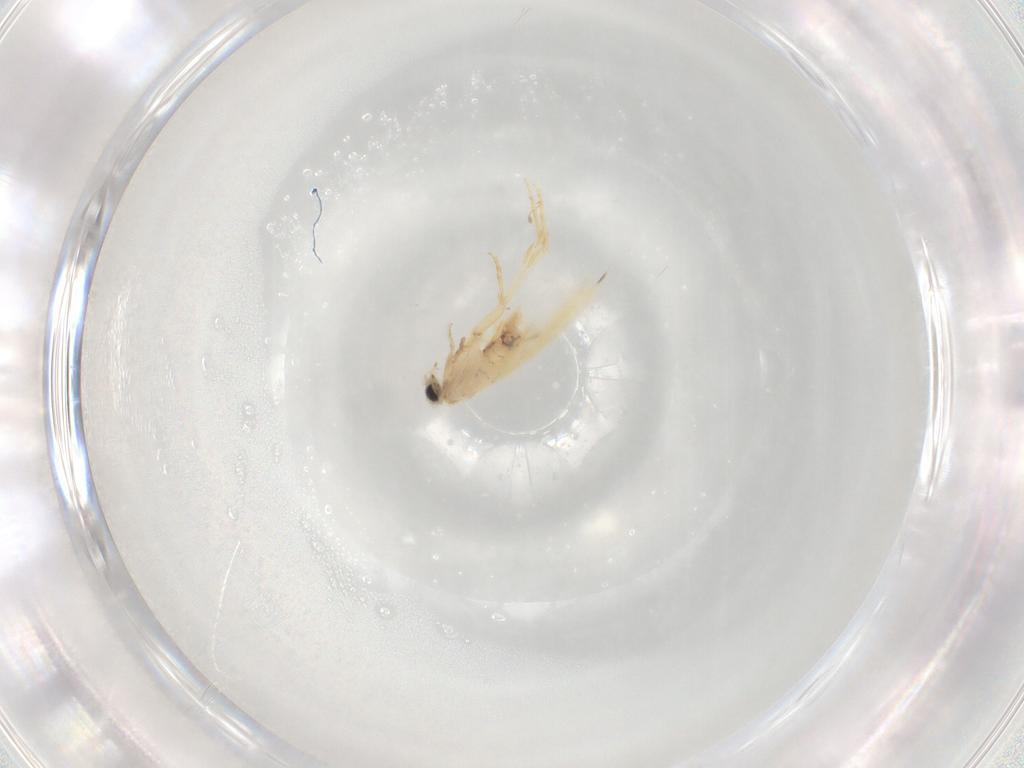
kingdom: Animalia
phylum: Arthropoda
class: Insecta
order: Lepidoptera
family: Nepticulidae
